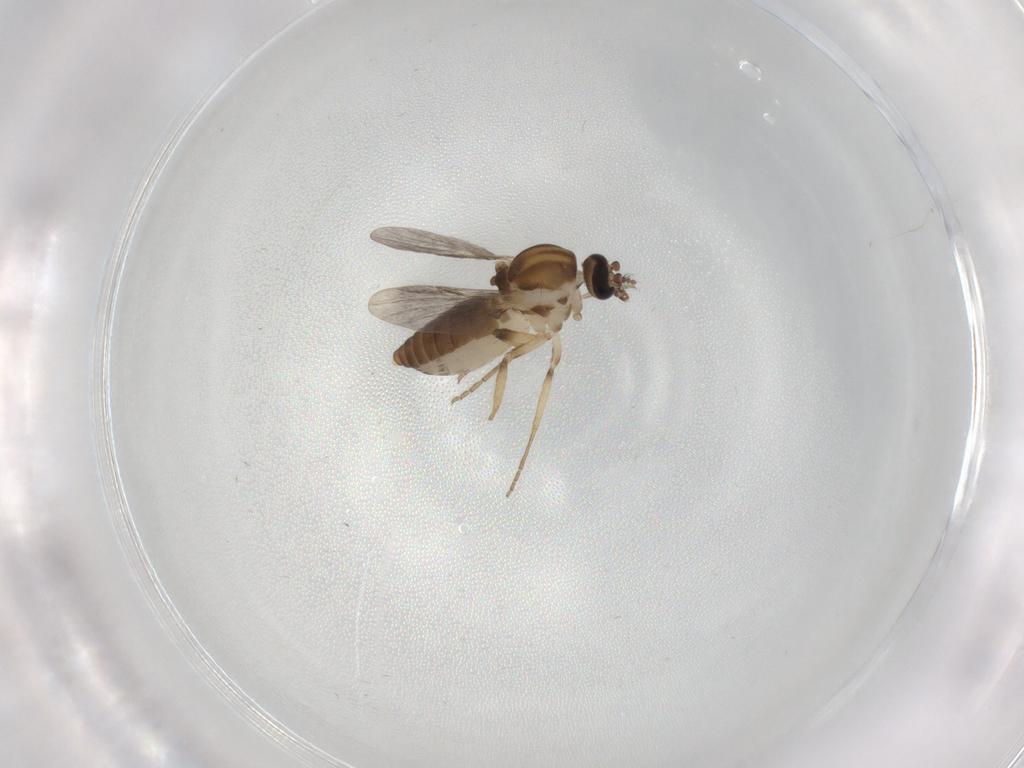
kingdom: Animalia
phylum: Arthropoda
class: Insecta
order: Diptera
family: Ceratopogonidae
